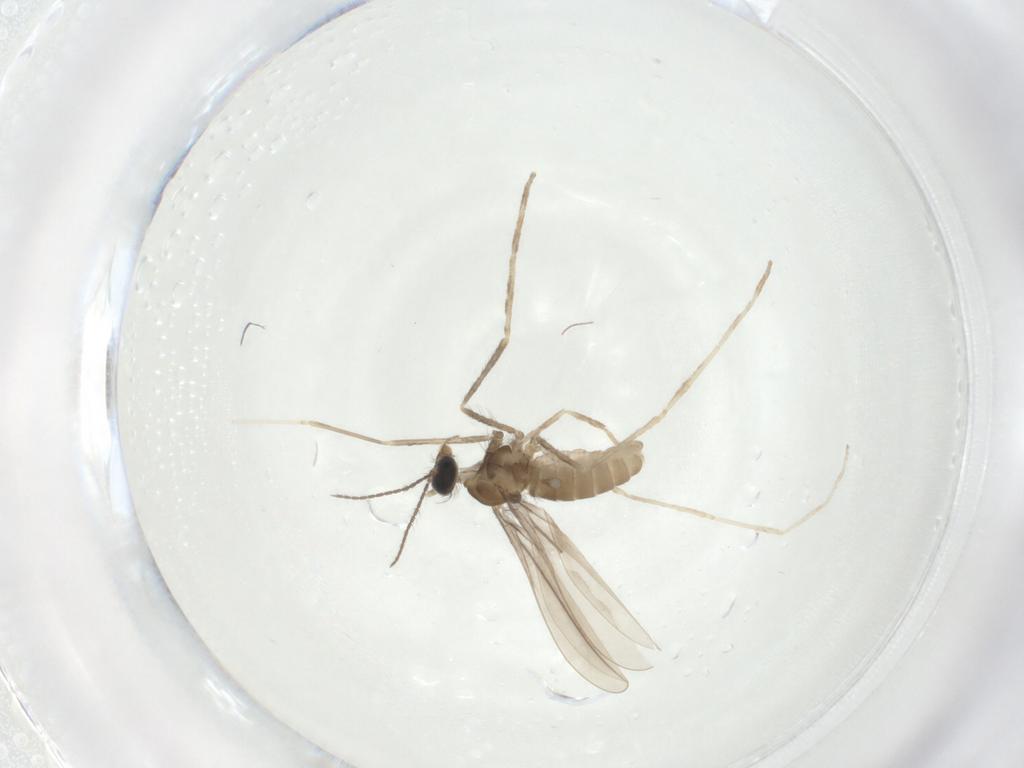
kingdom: Animalia
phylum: Arthropoda
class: Insecta
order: Diptera
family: Cecidomyiidae
